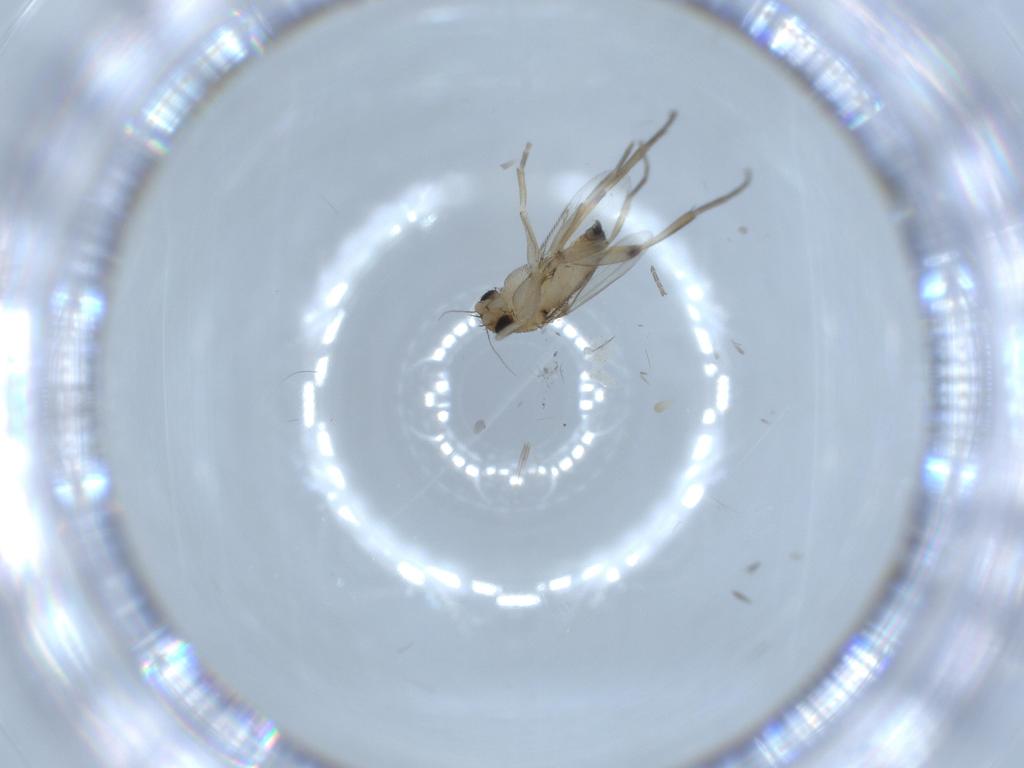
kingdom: Animalia
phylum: Arthropoda
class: Insecta
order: Diptera
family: Phoridae
